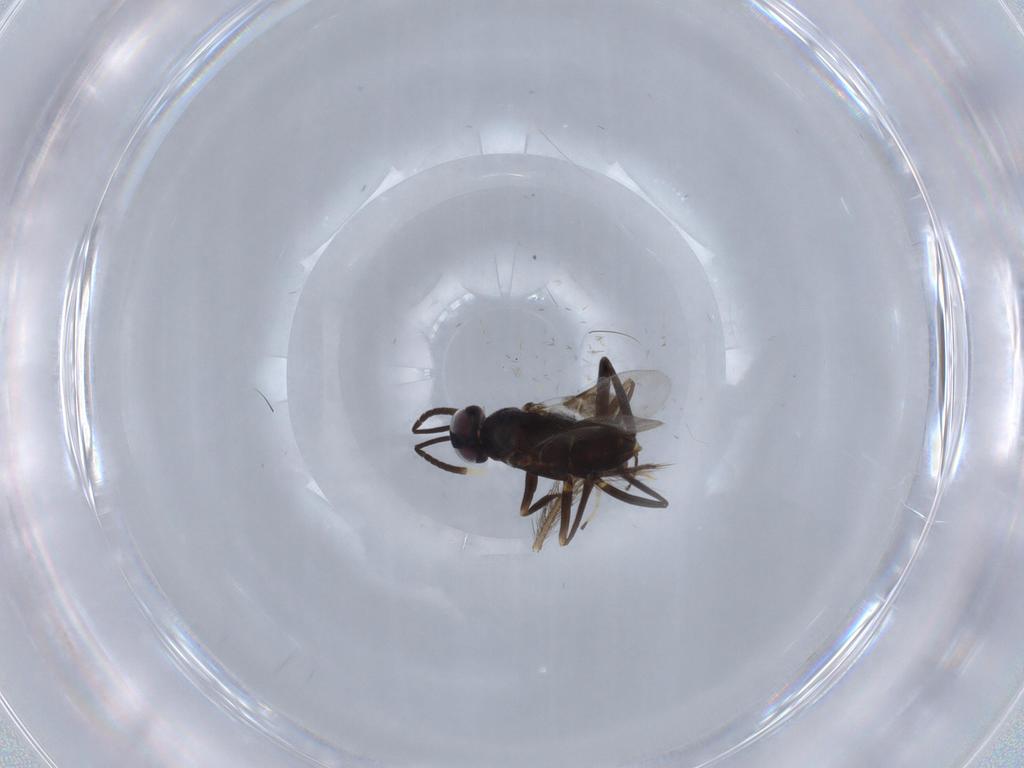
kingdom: Animalia
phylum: Arthropoda
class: Insecta
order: Hymenoptera
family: Encyrtidae
